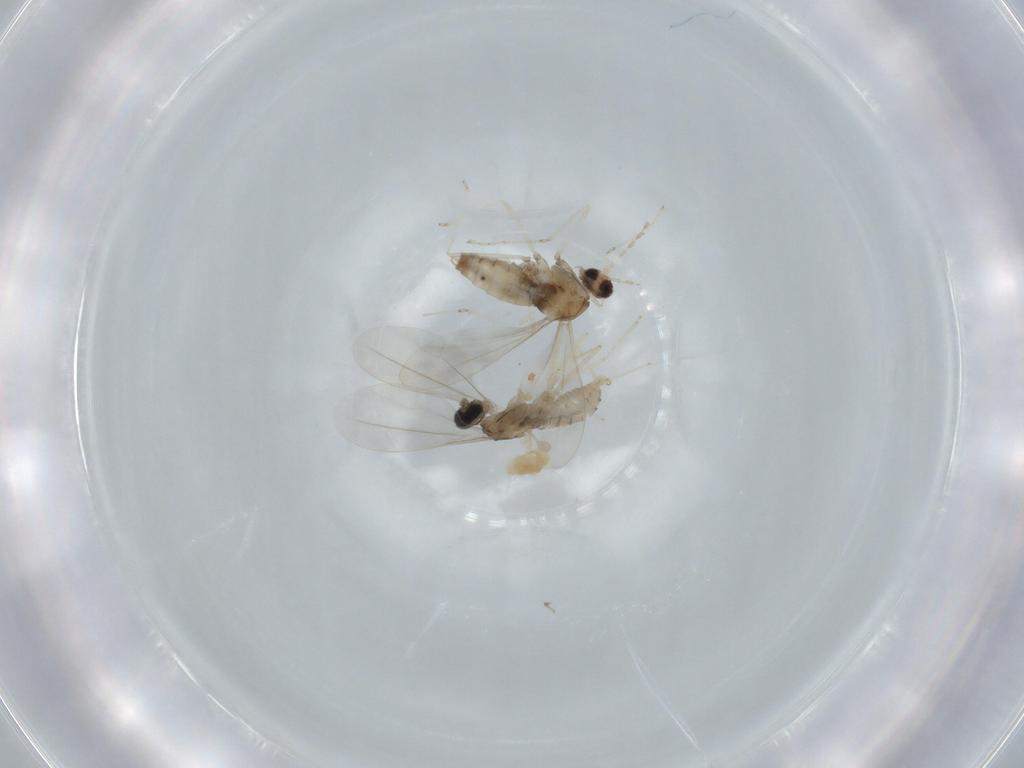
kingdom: Animalia
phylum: Arthropoda
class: Insecta
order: Diptera
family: Cecidomyiidae
